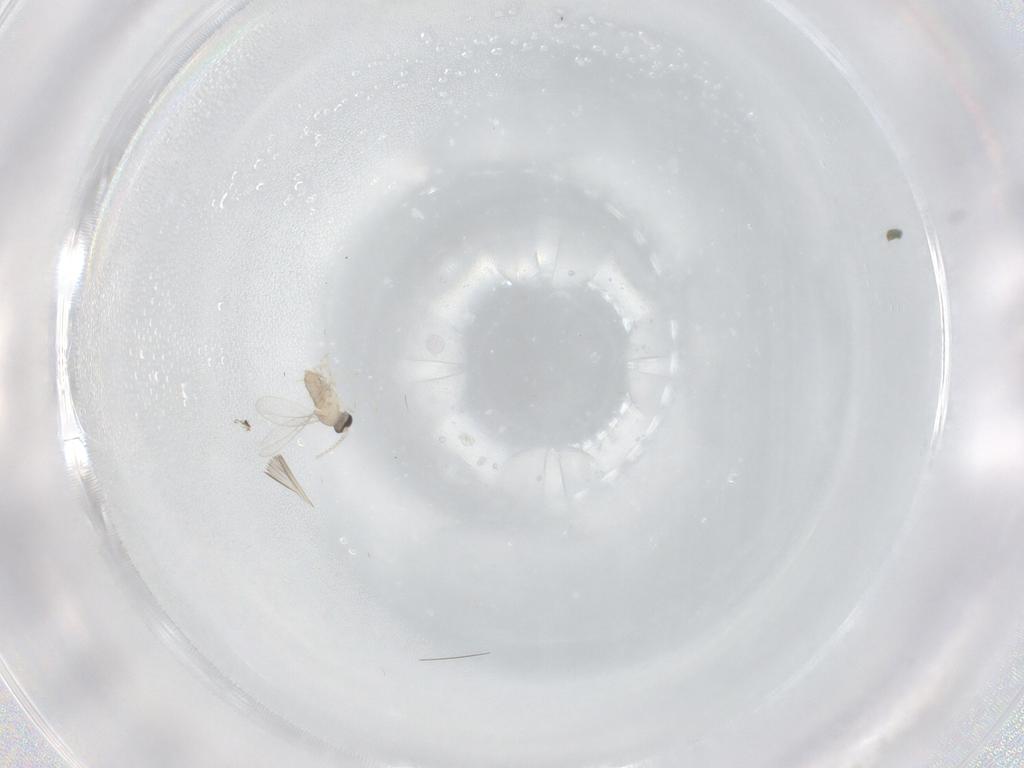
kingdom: Animalia
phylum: Arthropoda
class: Insecta
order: Diptera
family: Cecidomyiidae
